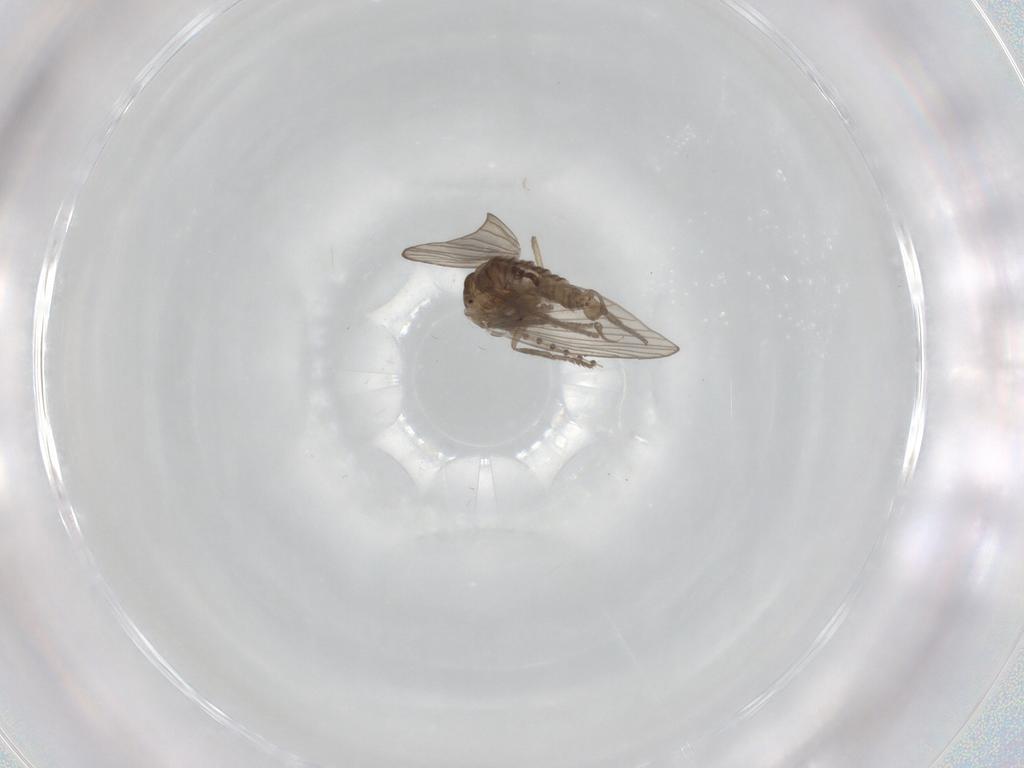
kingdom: Animalia
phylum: Arthropoda
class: Insecta
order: Diptera
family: Psychodidae
